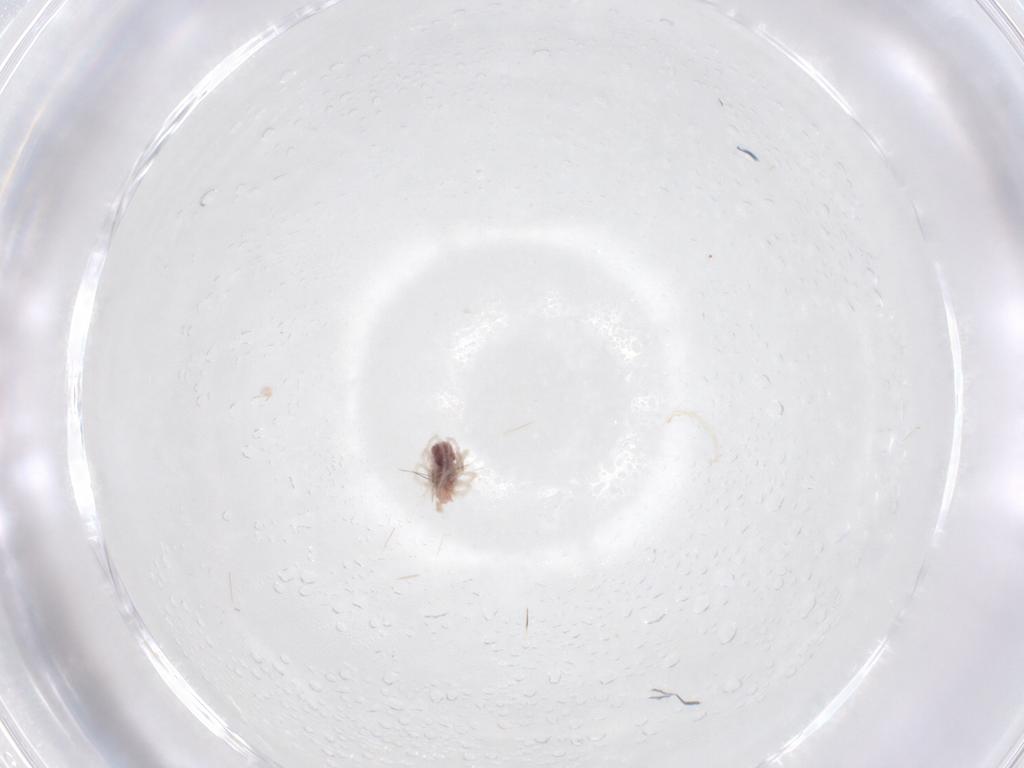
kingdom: Animalia
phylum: Arthropoda
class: Arachnida
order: Trombidiformes
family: Anystidae
